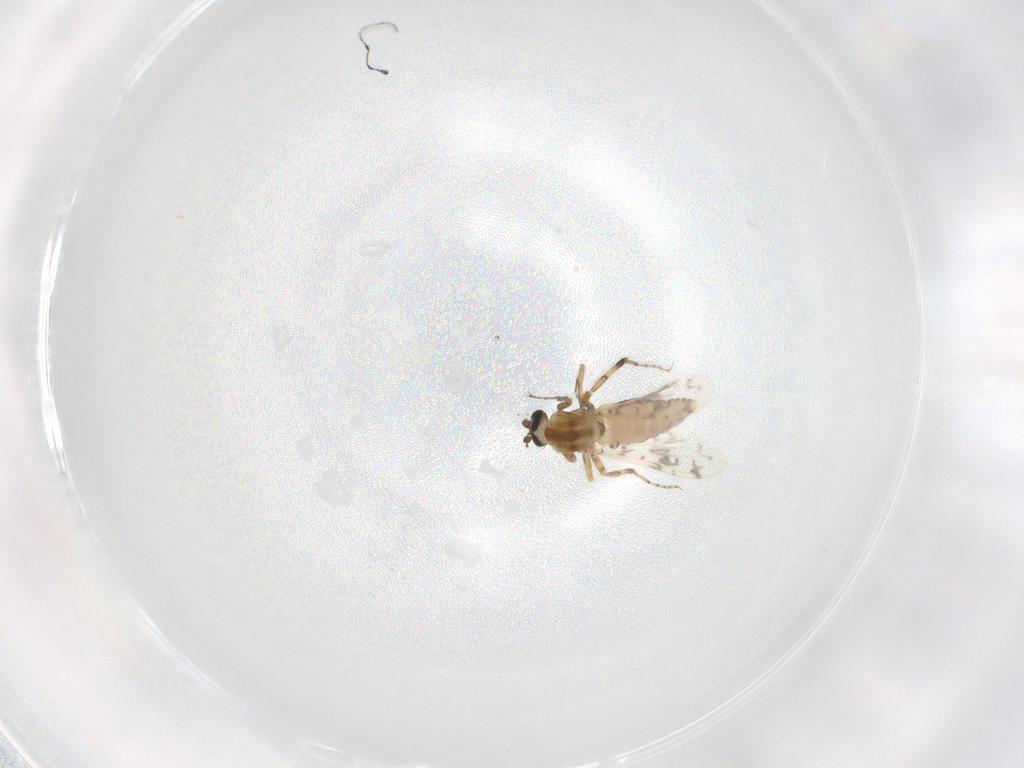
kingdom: Animalia
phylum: Arthropoda
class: Insecta
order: Diptera
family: Ceratopogonidae
